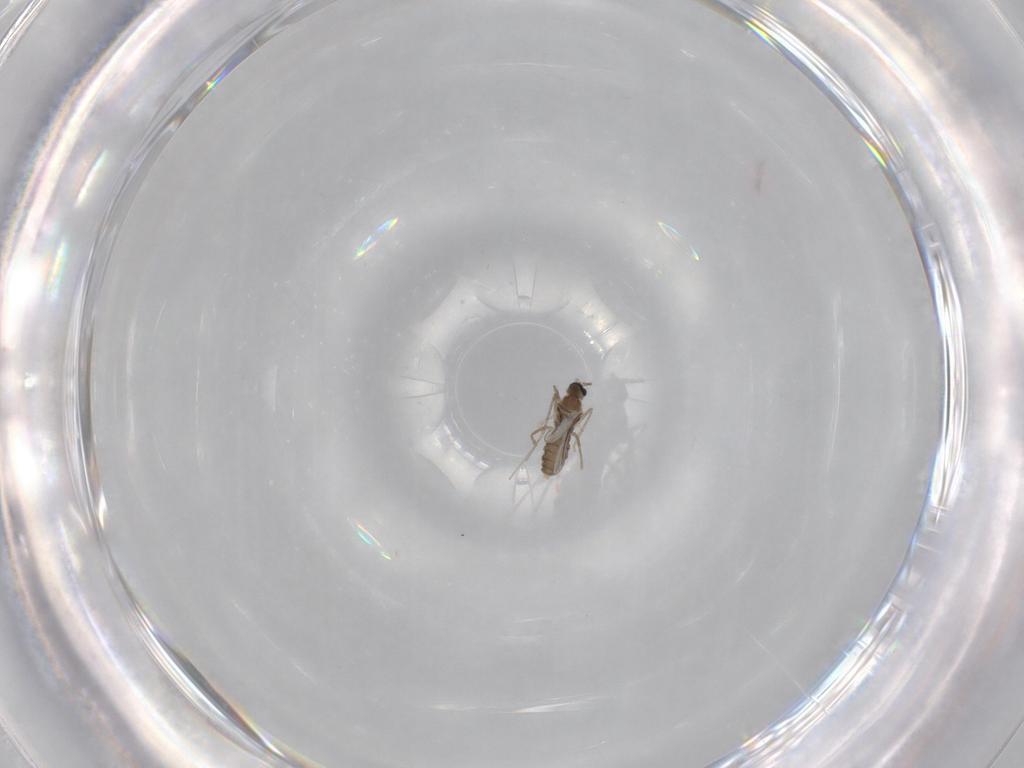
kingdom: Animalia
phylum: Arthropoda
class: Insecta
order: Diptera
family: Cecidomyiidae
